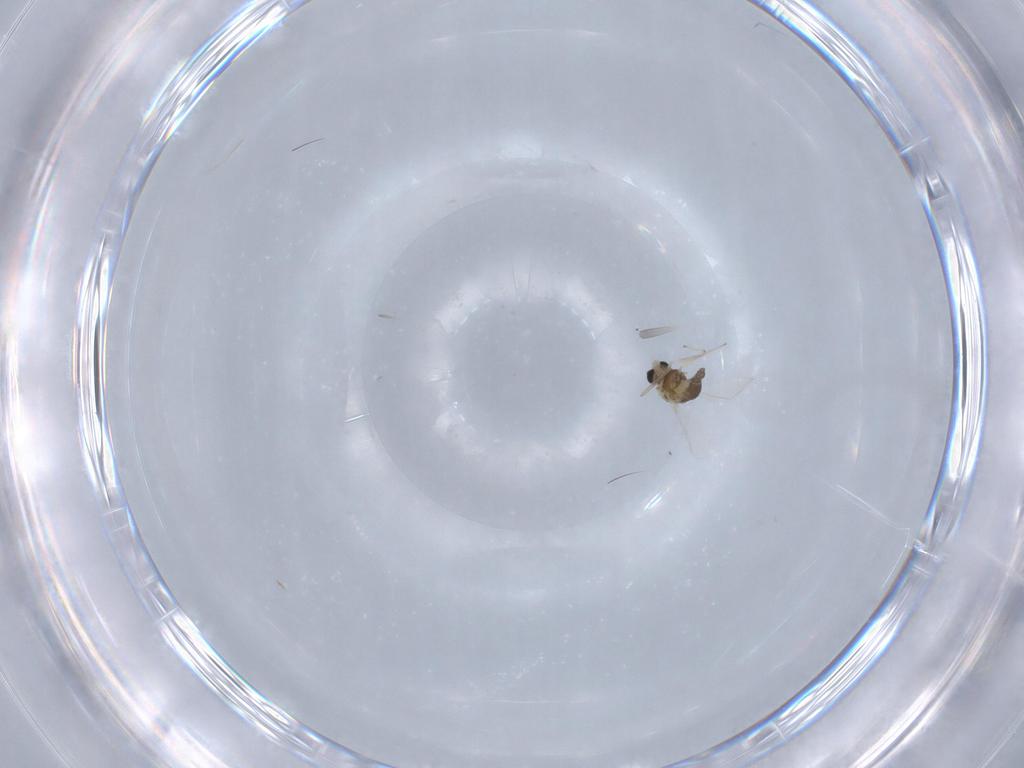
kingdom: Animalia
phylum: Arthropoda
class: Insecta
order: Diptera
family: Chironomidae
